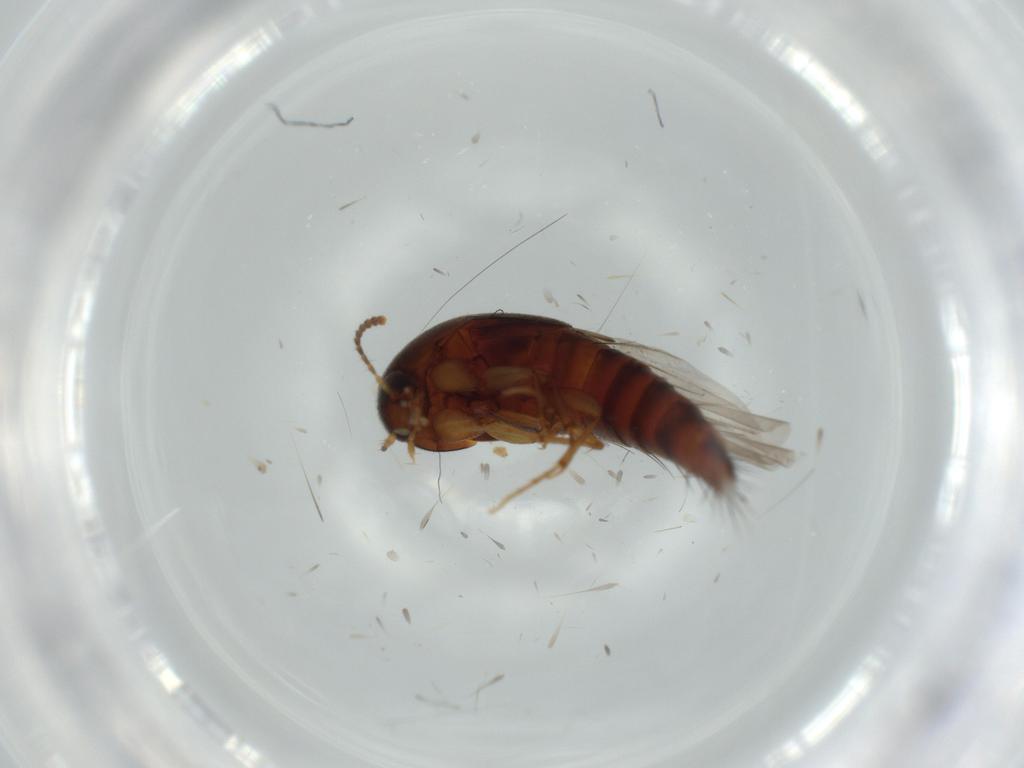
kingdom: Animalia
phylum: Arthropoda
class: Insecta
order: Coleoptera
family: Staphylinidae
